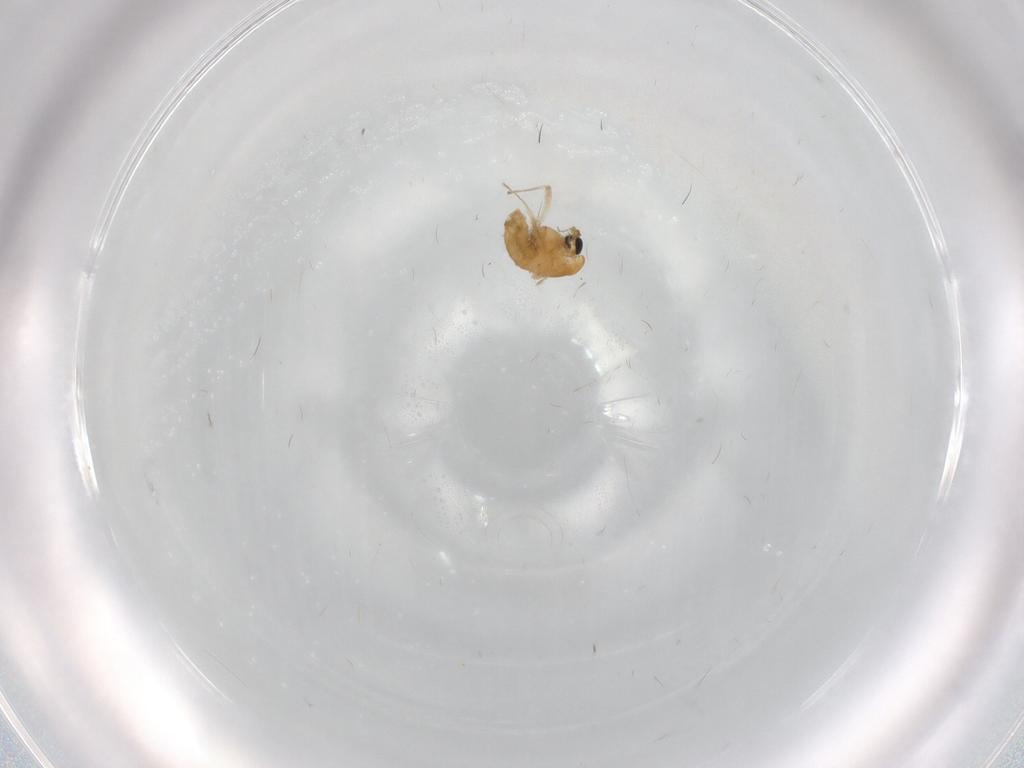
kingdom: Animalia
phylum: Arthropoda
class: Insecta
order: Diptera
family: Chironomidae
